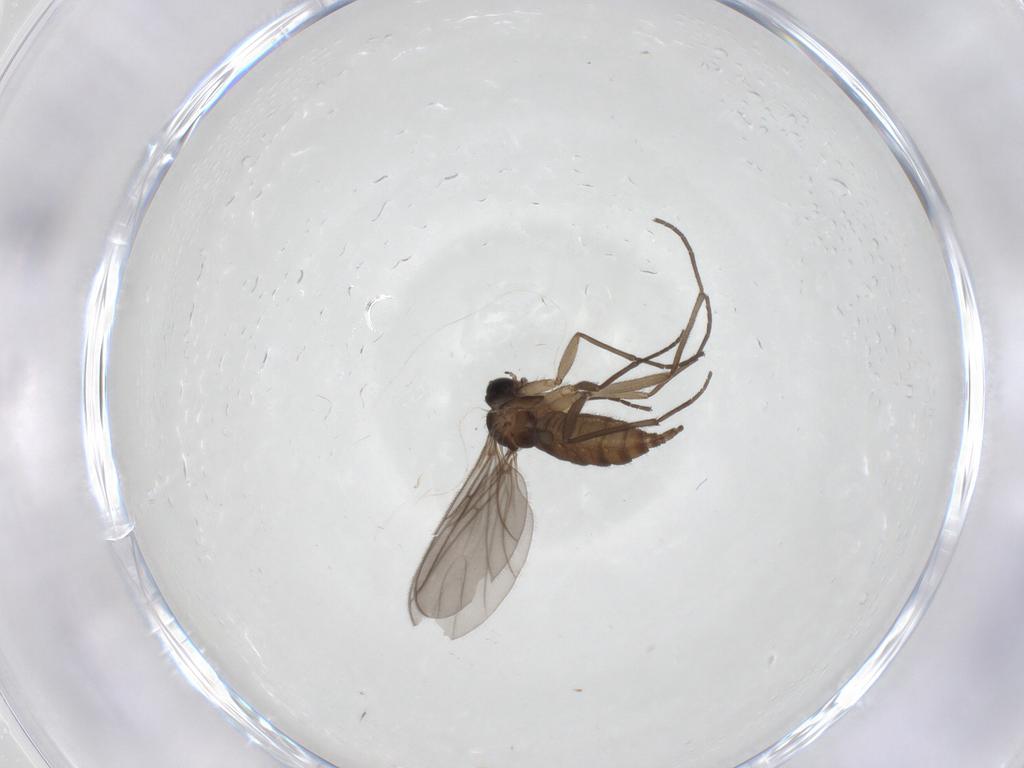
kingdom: Animalia
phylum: Arthropoda
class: Insecta
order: Diptera
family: Sciaridae
